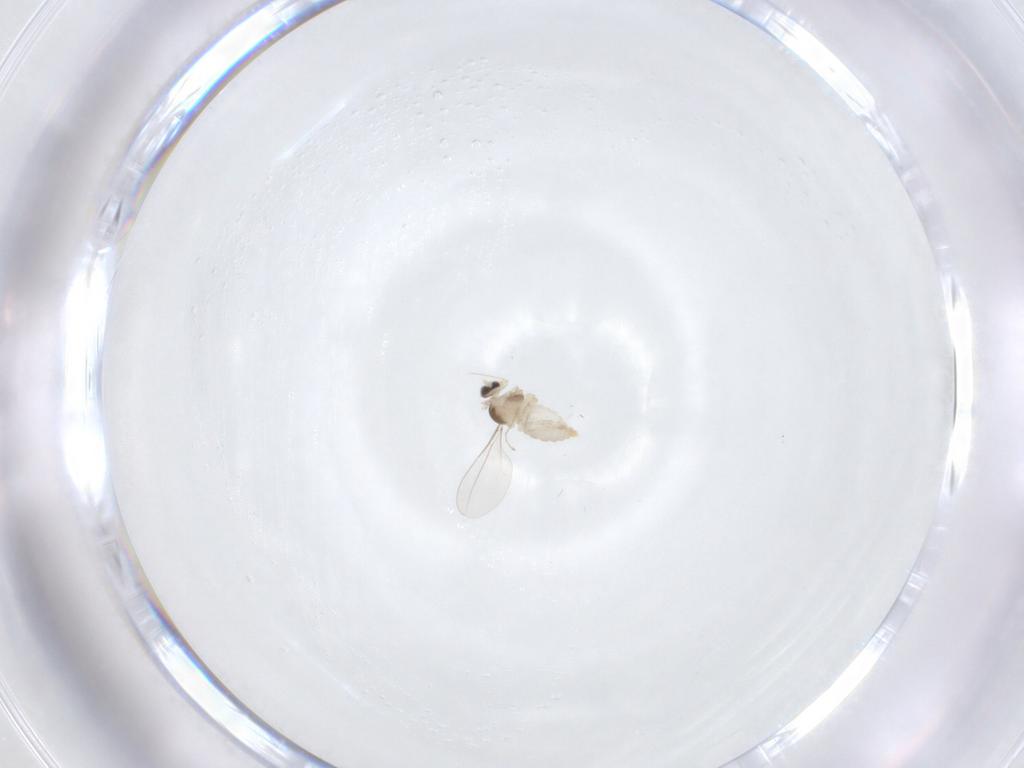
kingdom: Animalia
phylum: Arthropoda
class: Insecta
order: Diptera
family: Cecidomyiidae
